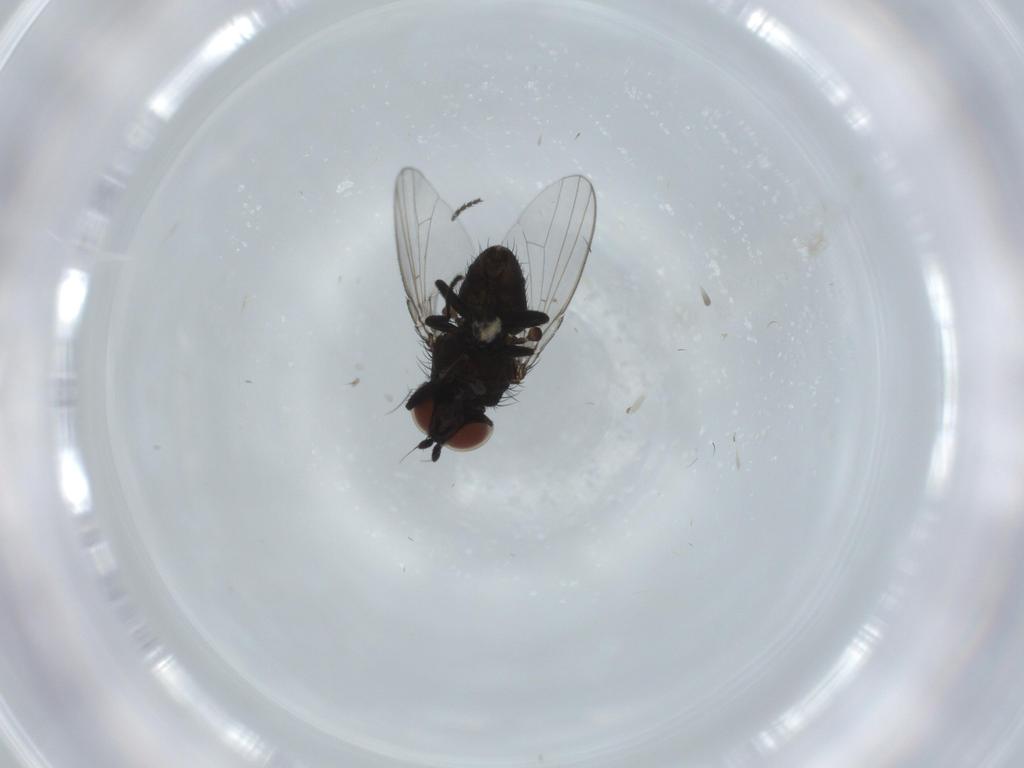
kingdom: Animalia
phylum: Arthropoda
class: Insecta
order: Diptera
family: Milichiidae
